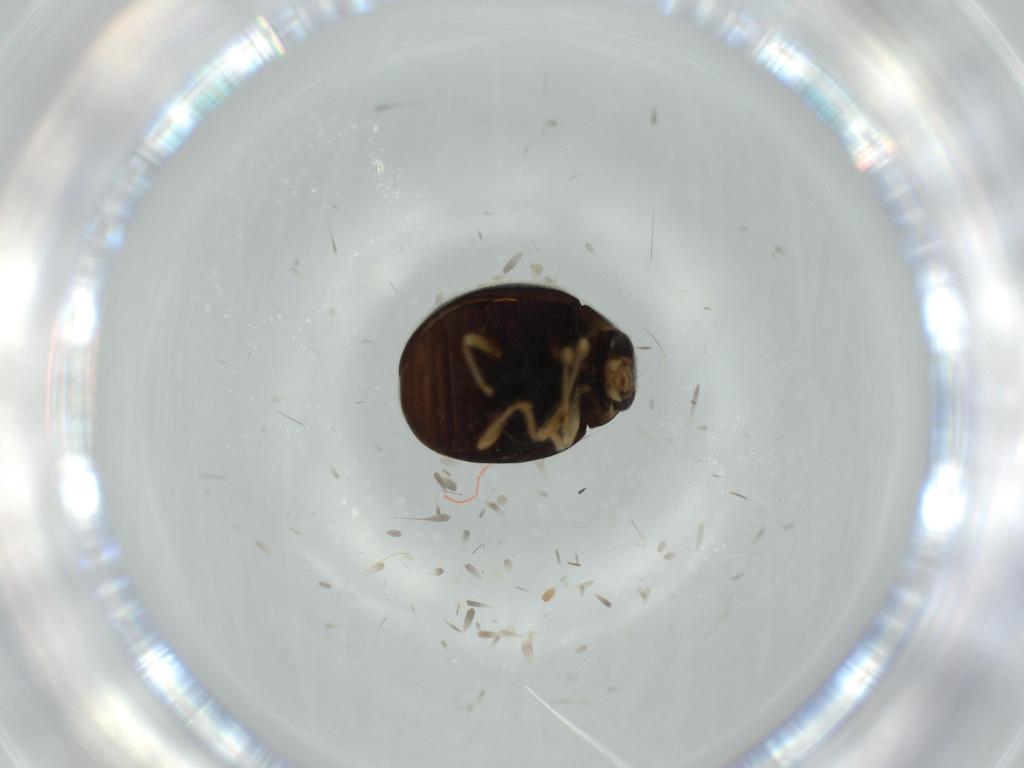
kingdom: Animalia
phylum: Arthropoda
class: Insecta
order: Coleoptera
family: Coccinellidae
